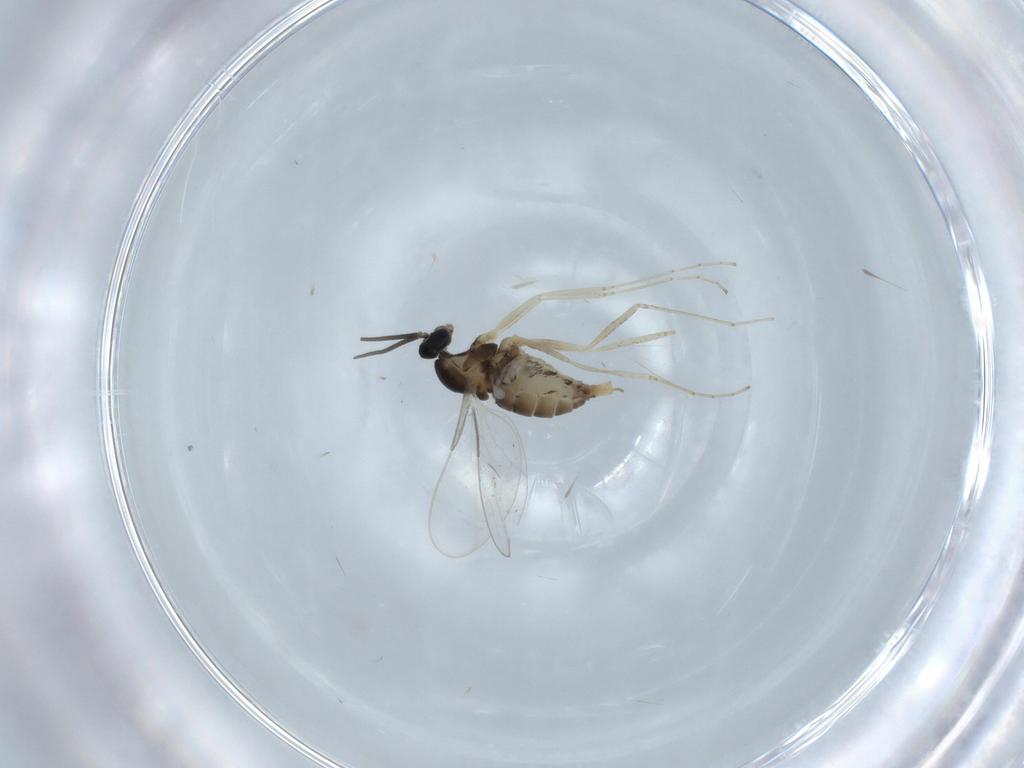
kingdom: Animalia
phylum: Arthropoda
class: Insecta
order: Diptera
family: Cecidomyiidae
